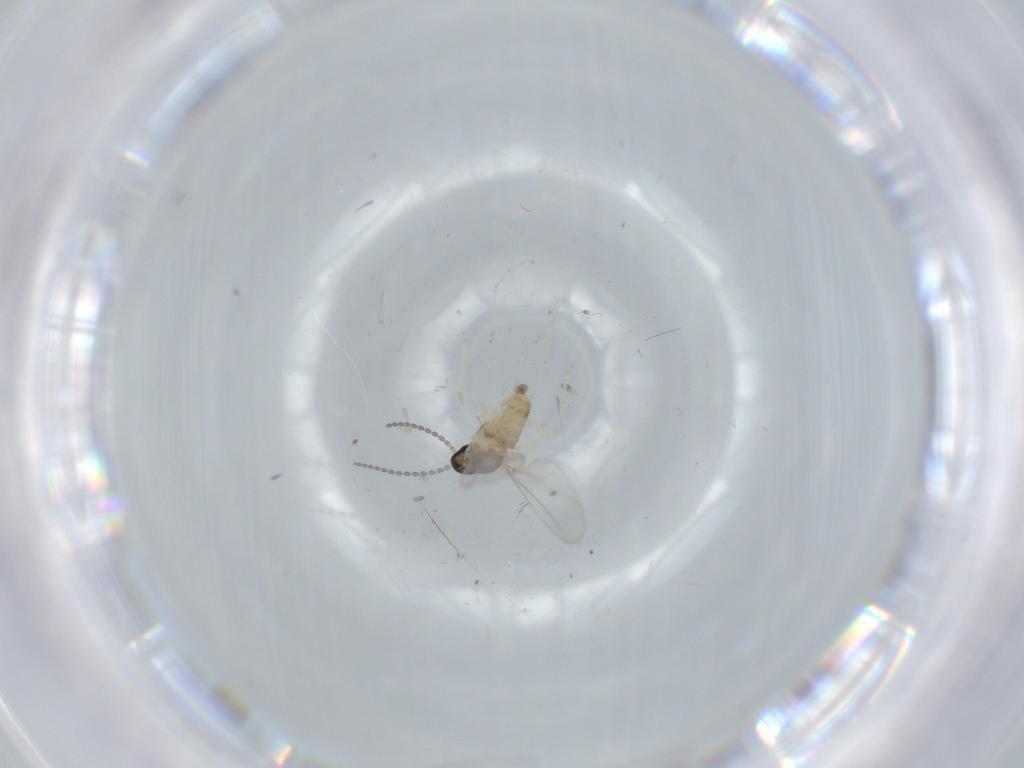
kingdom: Animalia
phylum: Arthropoda
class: Insecta
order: Diptera
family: Cecidomyiidae
